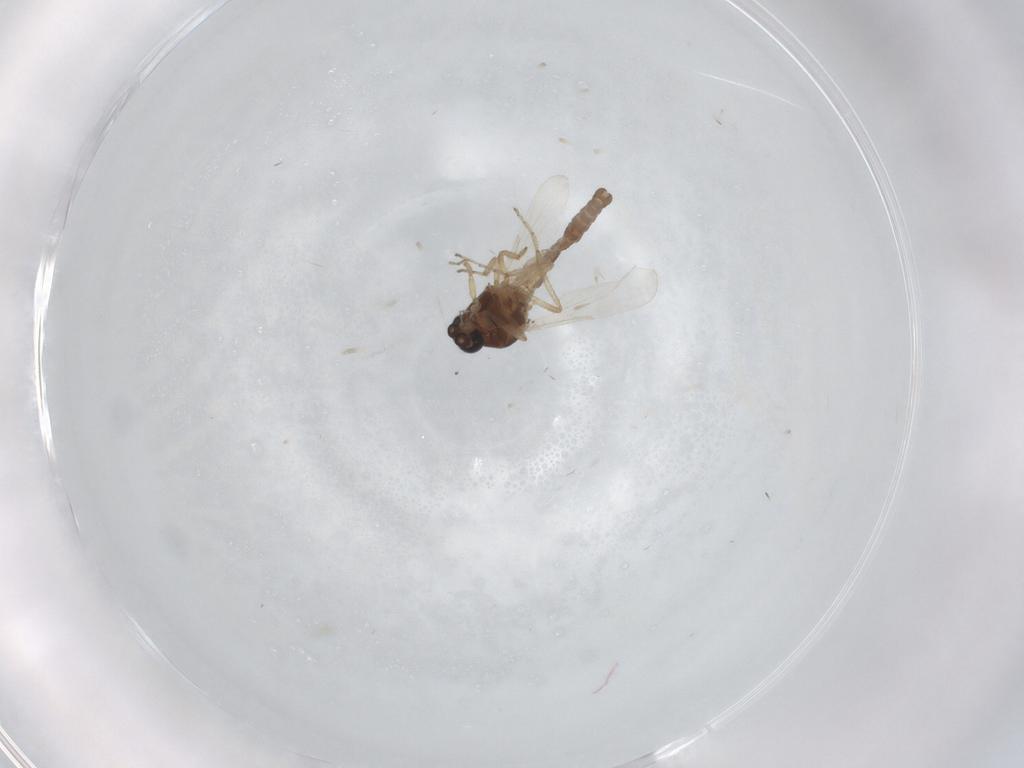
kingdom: Animalia
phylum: Arthropoda
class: Insecta
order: Diptera
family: Ceratopogonidae
